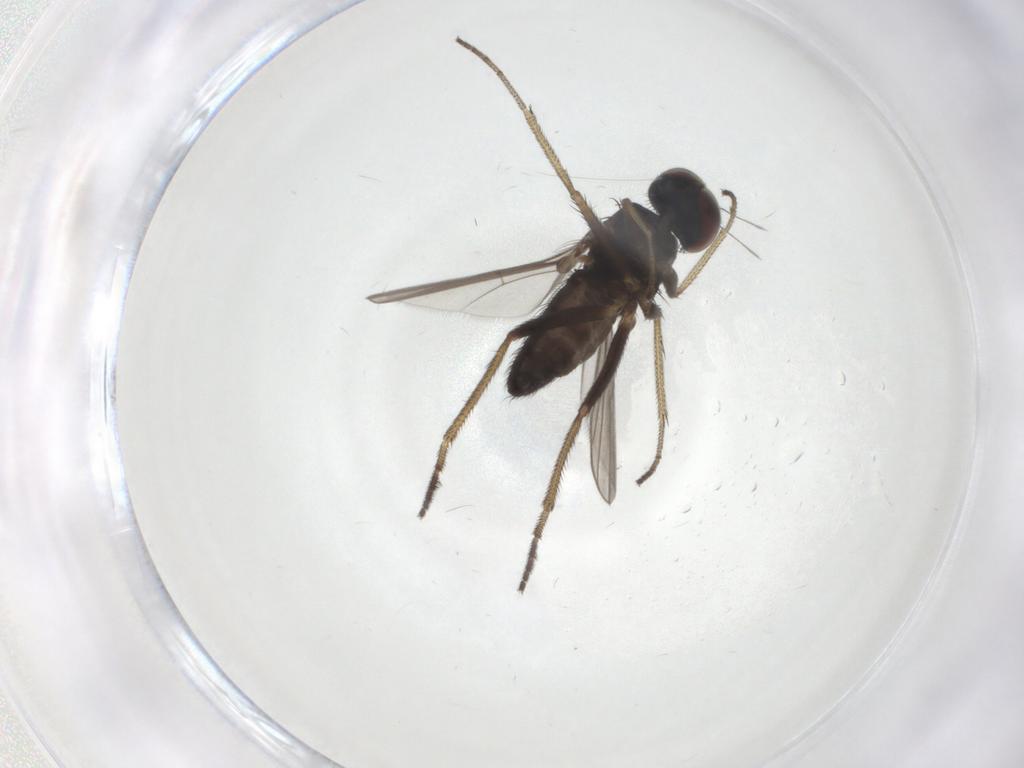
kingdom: Animalia
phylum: Arthropoda
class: Insecta
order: Diptera
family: Dolichopodidae
